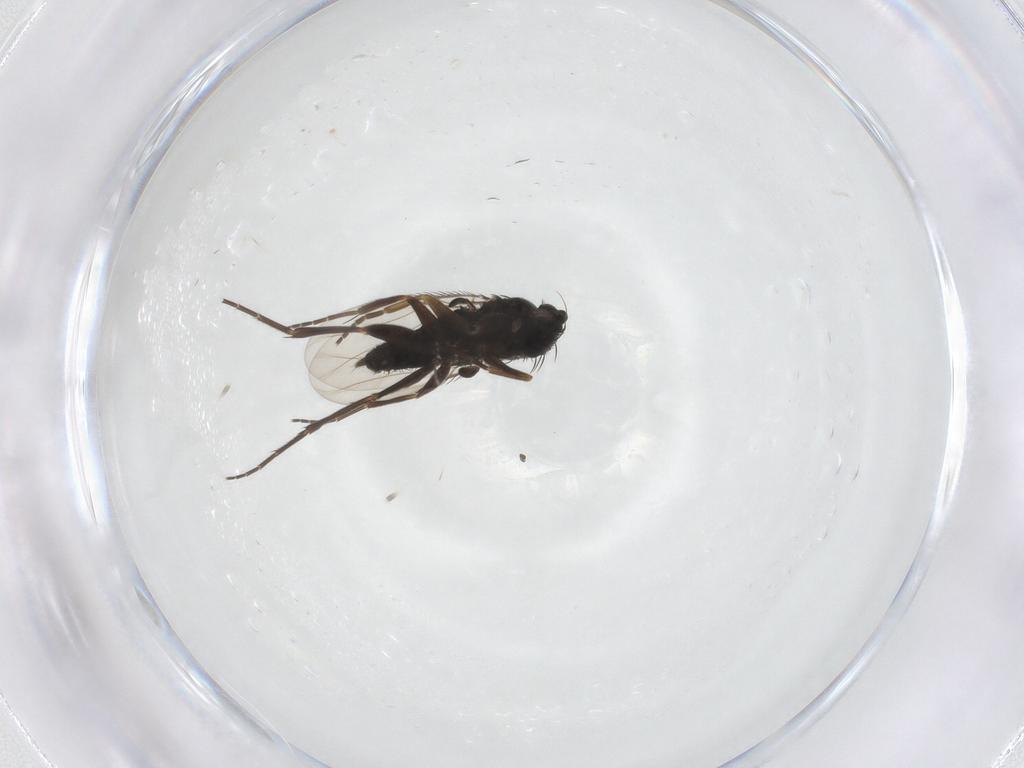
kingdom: Animalia
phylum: Arthropoda
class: Insecta
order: Diptera
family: Phoridae
